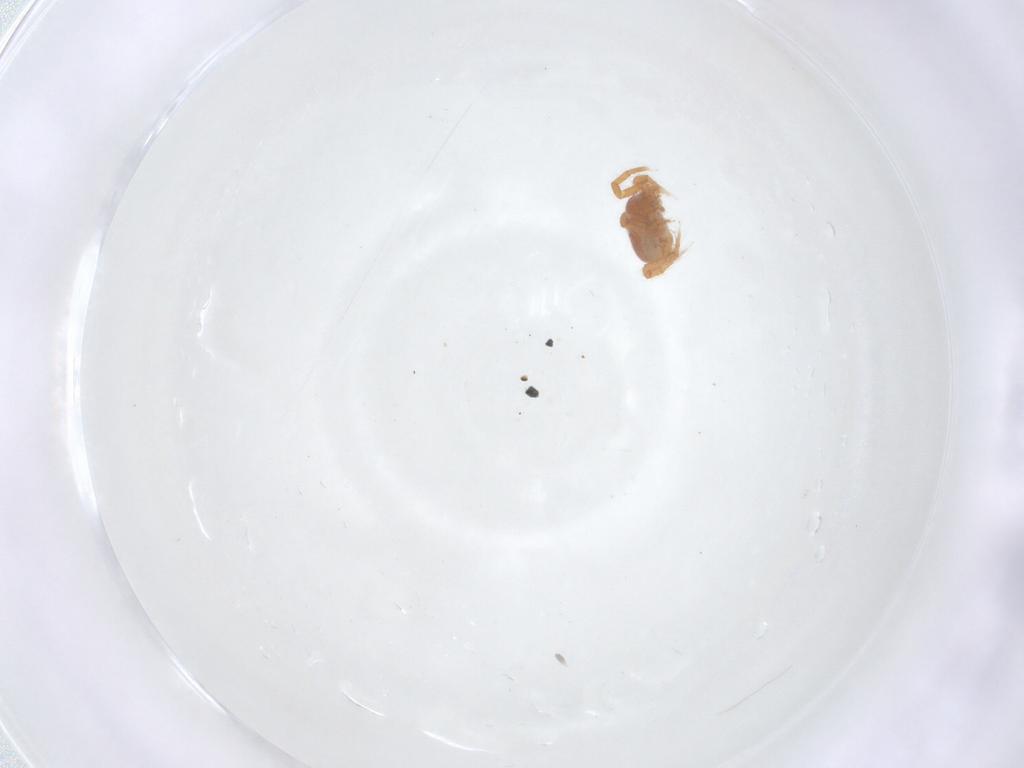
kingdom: Animalia
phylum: Arthropoda
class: Arachnida
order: Mesostigmata
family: Parasitidae
